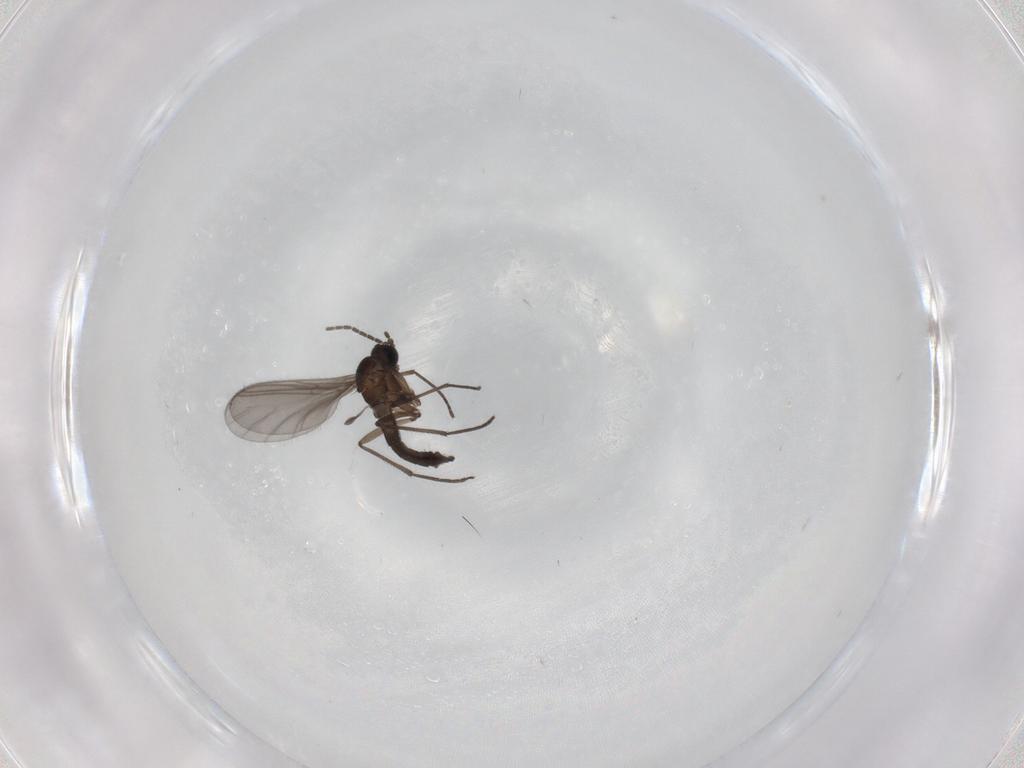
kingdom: Animalia
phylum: Arthropoda
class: Insecta
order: Diptera
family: Sciaridae
